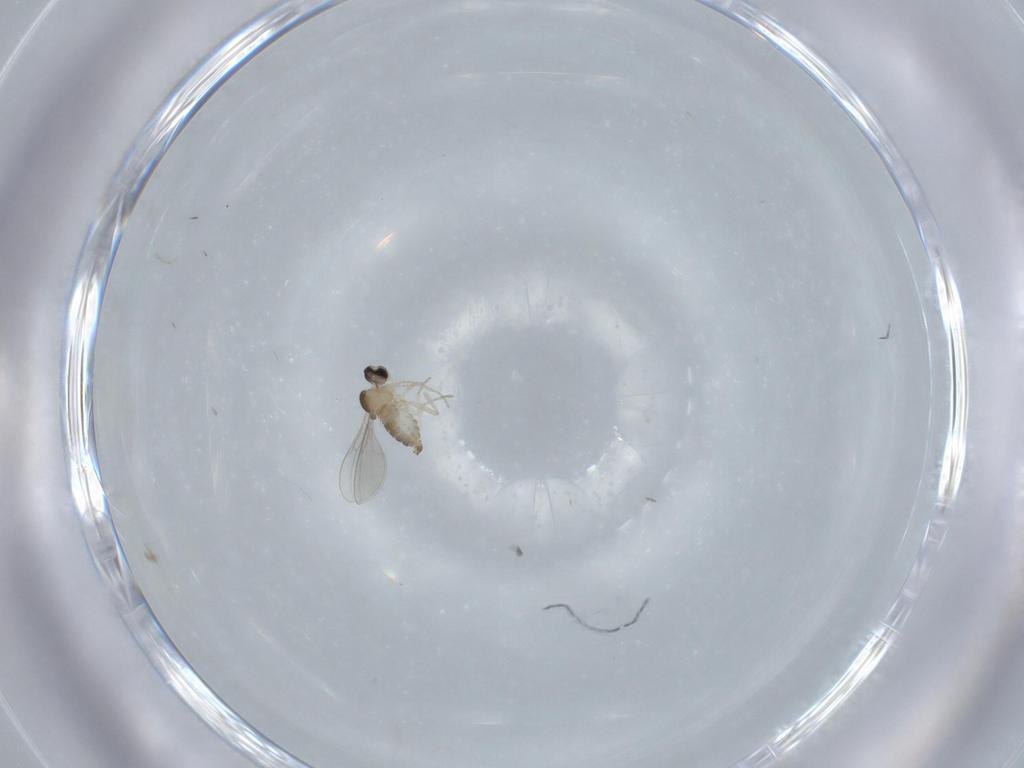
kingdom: Animalia
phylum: Arthropoda
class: Insecta
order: Diptera
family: Cecidomyiidae
